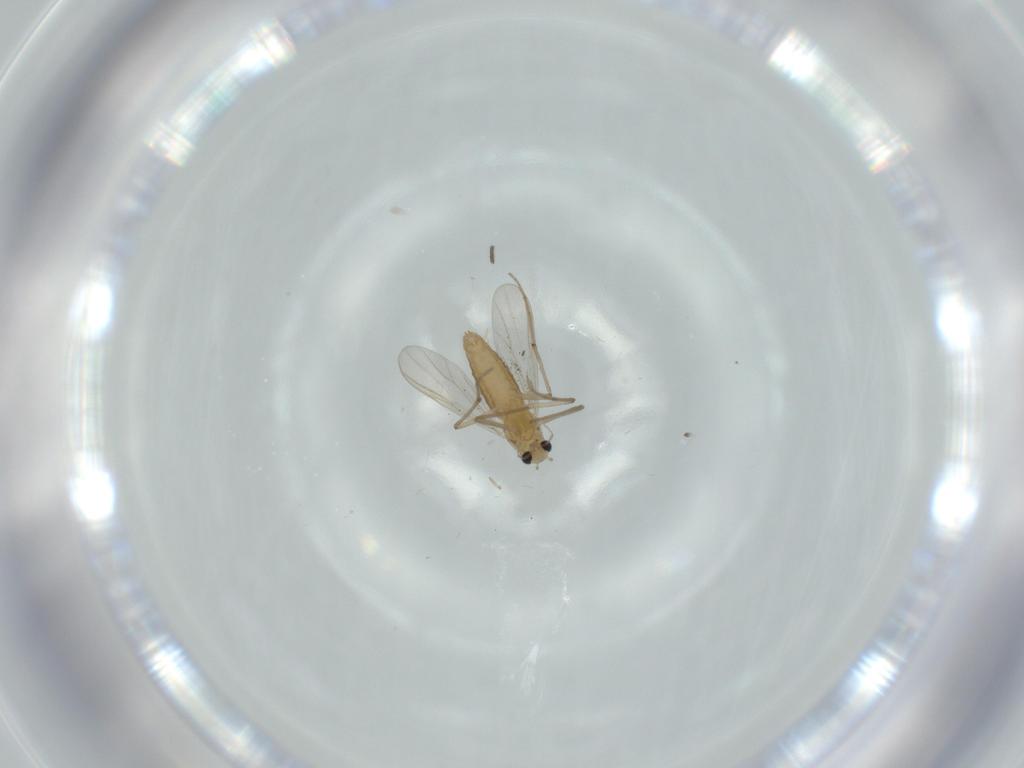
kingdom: Animalia
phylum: Arthropoda
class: Insecta
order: Diptera
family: Chironomidae
